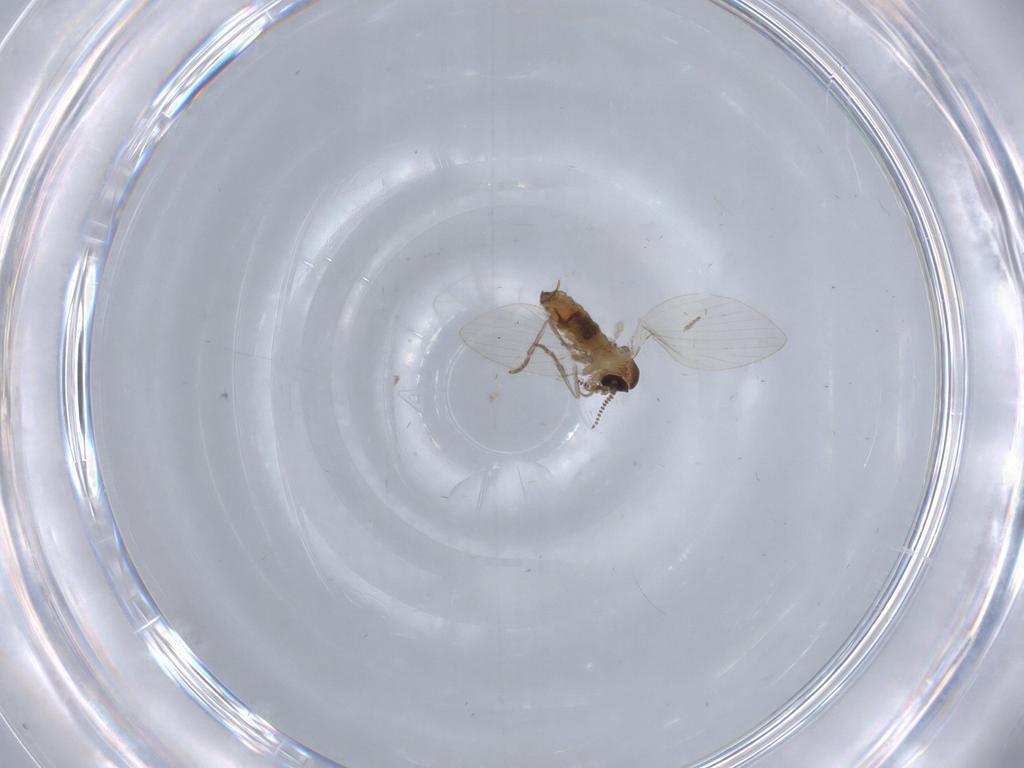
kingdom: Animalia
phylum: Arthropoda
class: Insecta
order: Diptera
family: Psychodidae
